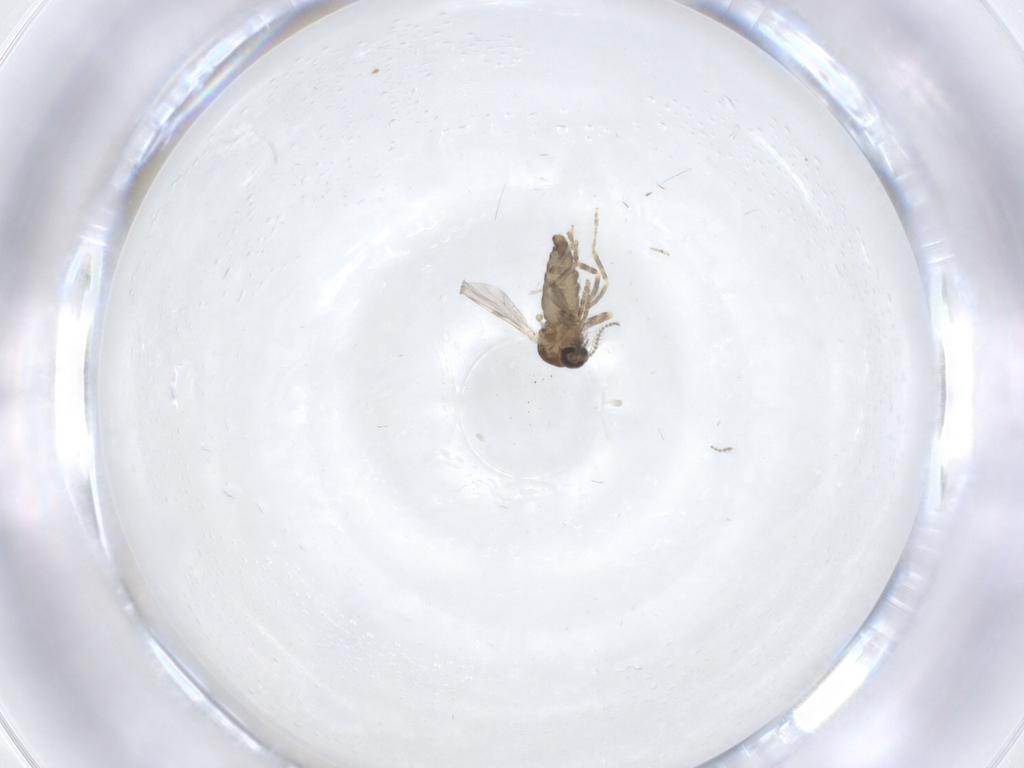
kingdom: Animalia
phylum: Arthropoda
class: Insecta
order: Diptera
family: Ceratopogonidae
